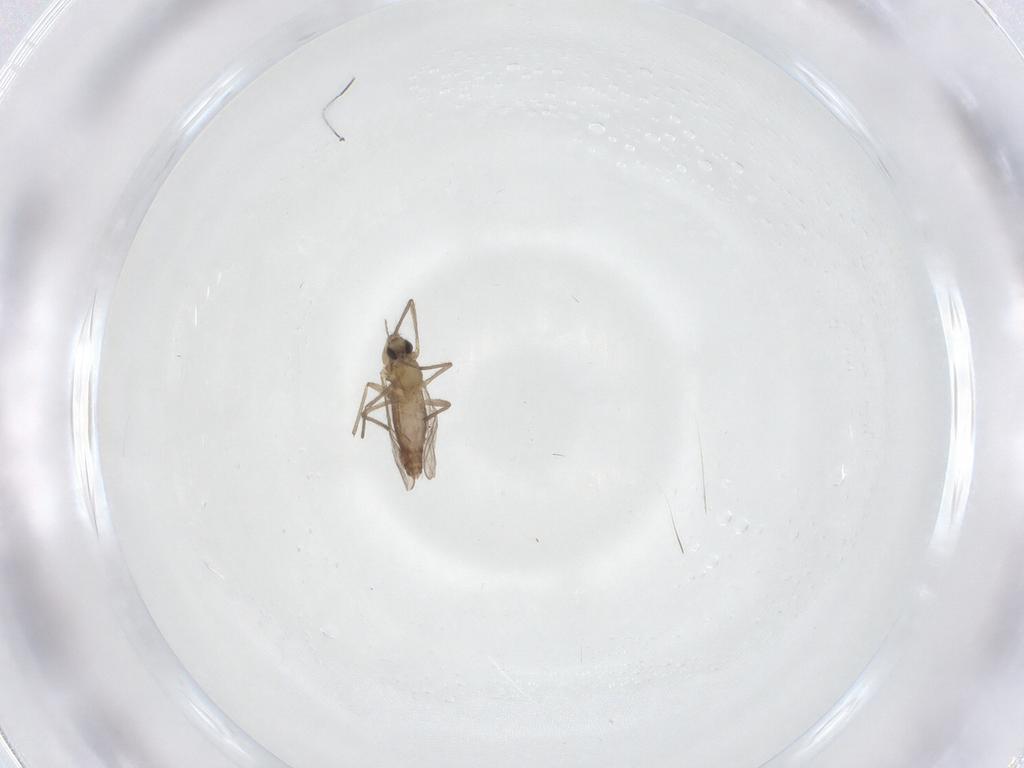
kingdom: Animalia
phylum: Arthropoda
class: Insecta
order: Diptera
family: Chironomidae
